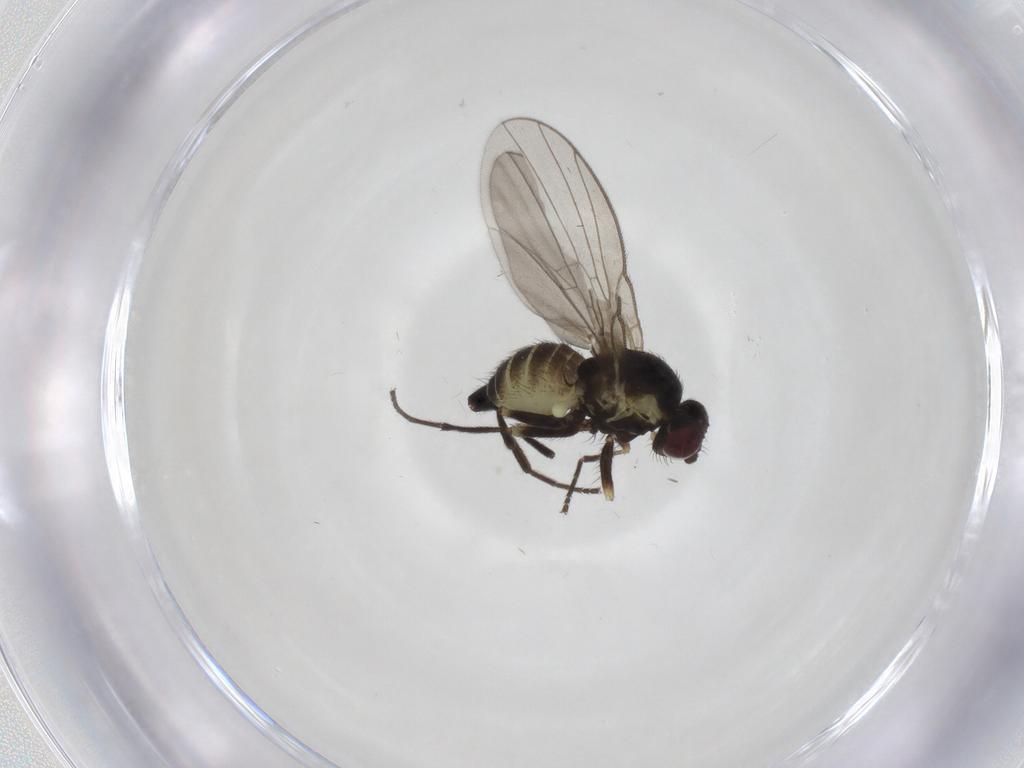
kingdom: Animalia
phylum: Arthropoda
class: Insecta
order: Diptera
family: Agromyzidae
